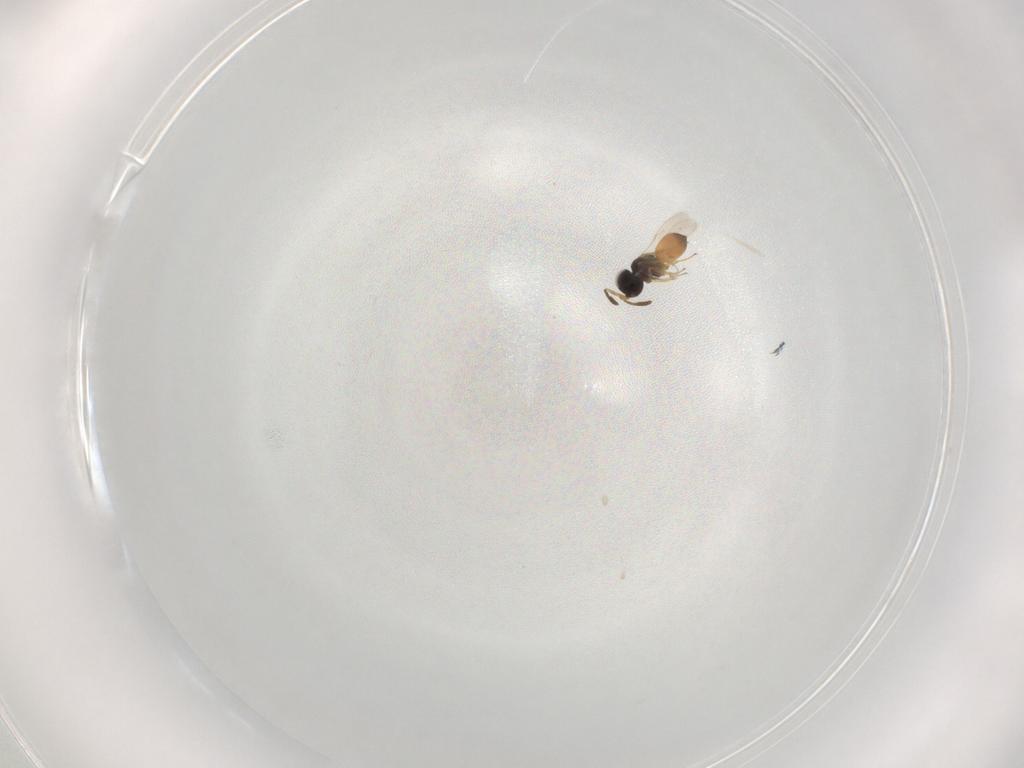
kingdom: Animalia
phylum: Arthropoda
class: Insecta
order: Hymenoptera
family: Scelionidae
